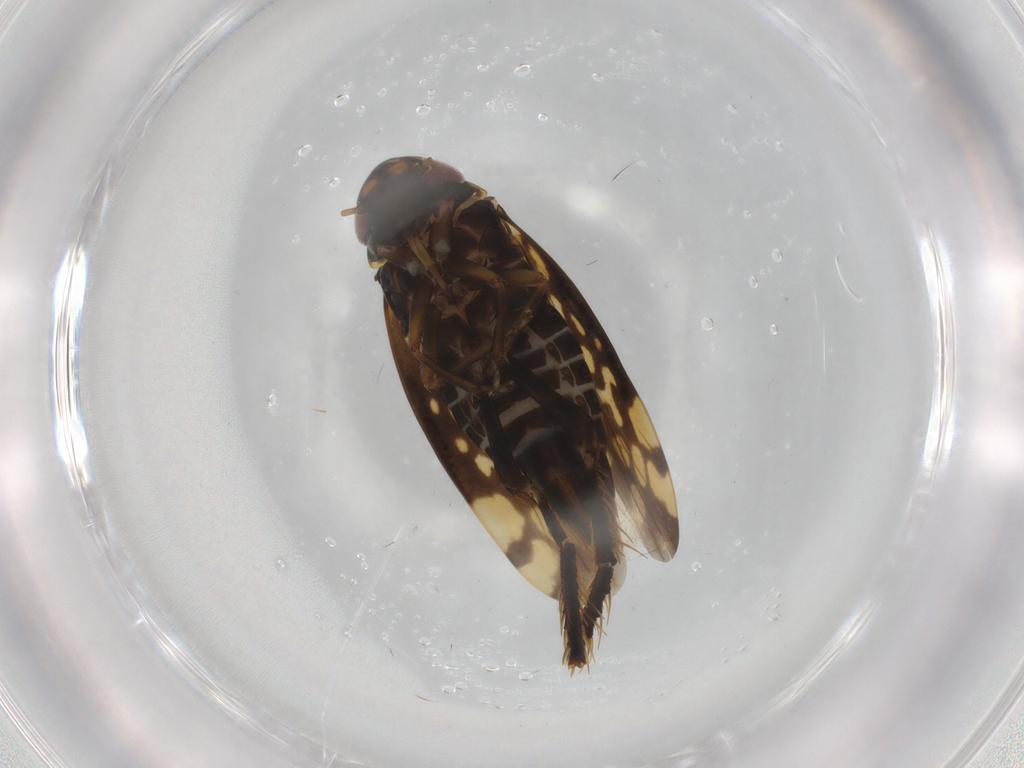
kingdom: Animalia
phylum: Arthropoda
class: Insecta
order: Hemiptera
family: Cicadellidae
